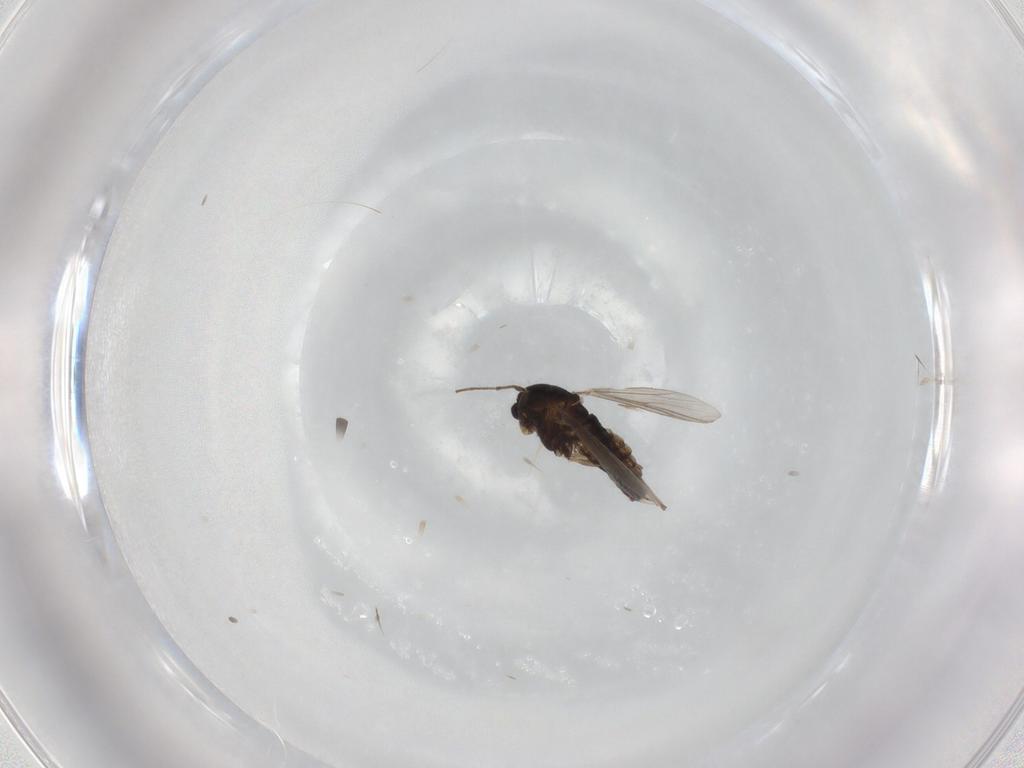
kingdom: Animalia
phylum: Arthropoda
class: Insecta
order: Diptera
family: Chironomidae
